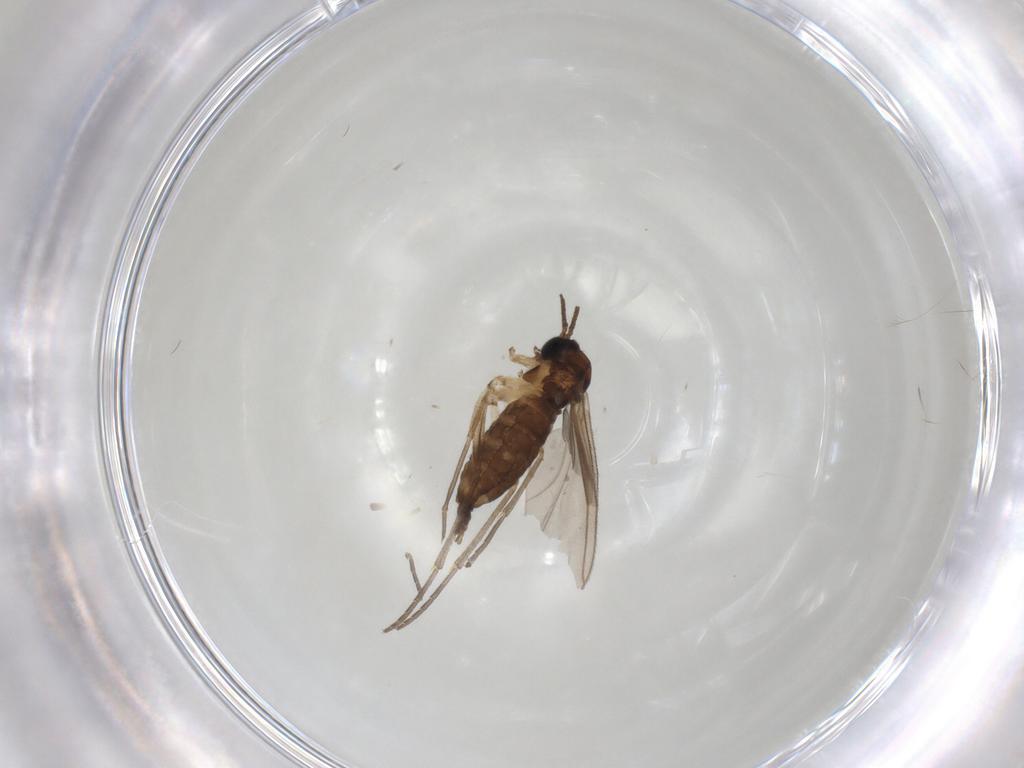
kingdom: Animalia
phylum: Arthropoda
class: Insecta
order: Diptera
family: Sciaridae
